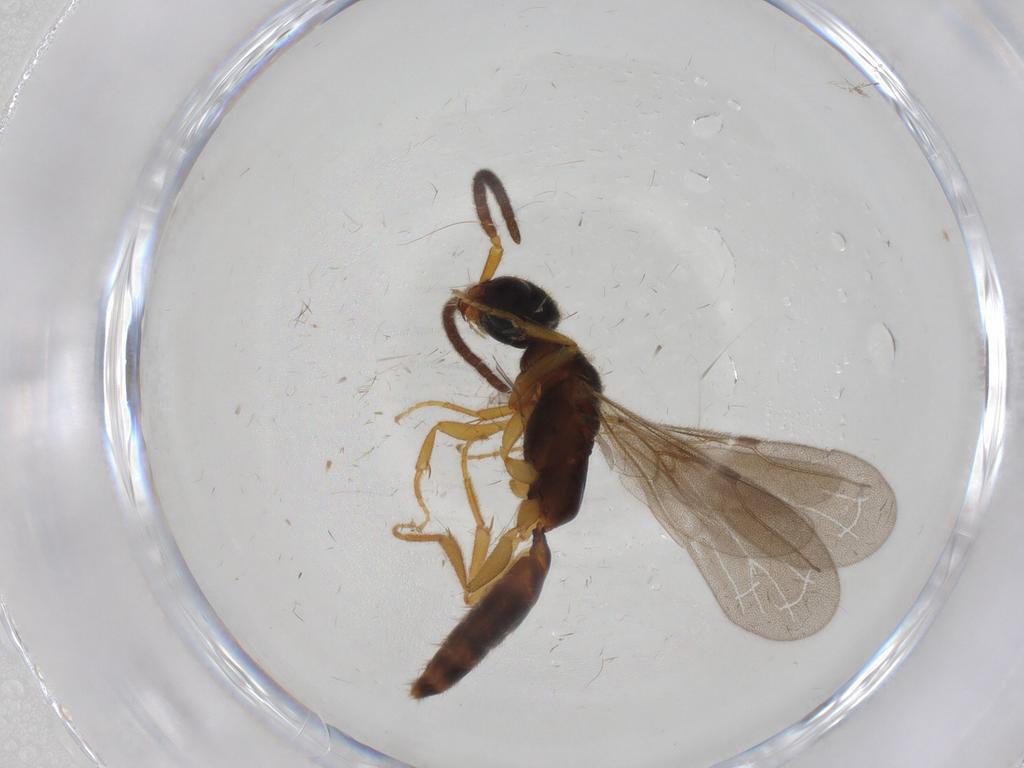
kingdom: Animalia
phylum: Arthropoda
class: Insecta
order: Hymenoptera
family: Bethylidae
